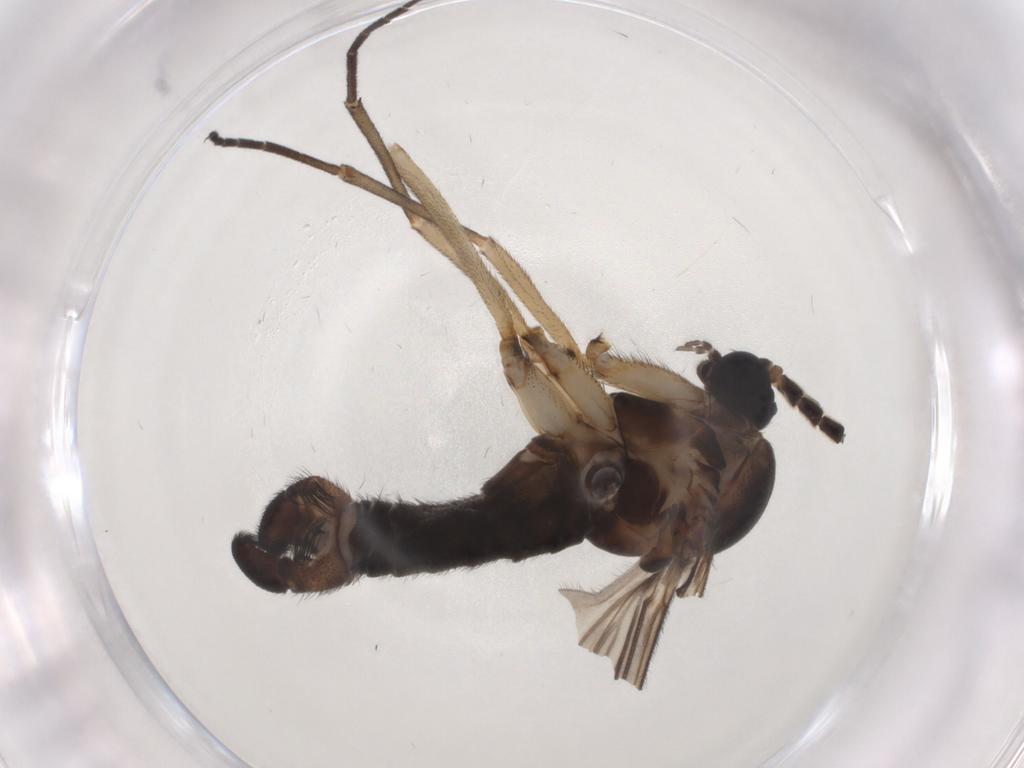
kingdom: Animalia
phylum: Arthropoda
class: Insecta
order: Diptera
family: Sciaridae
